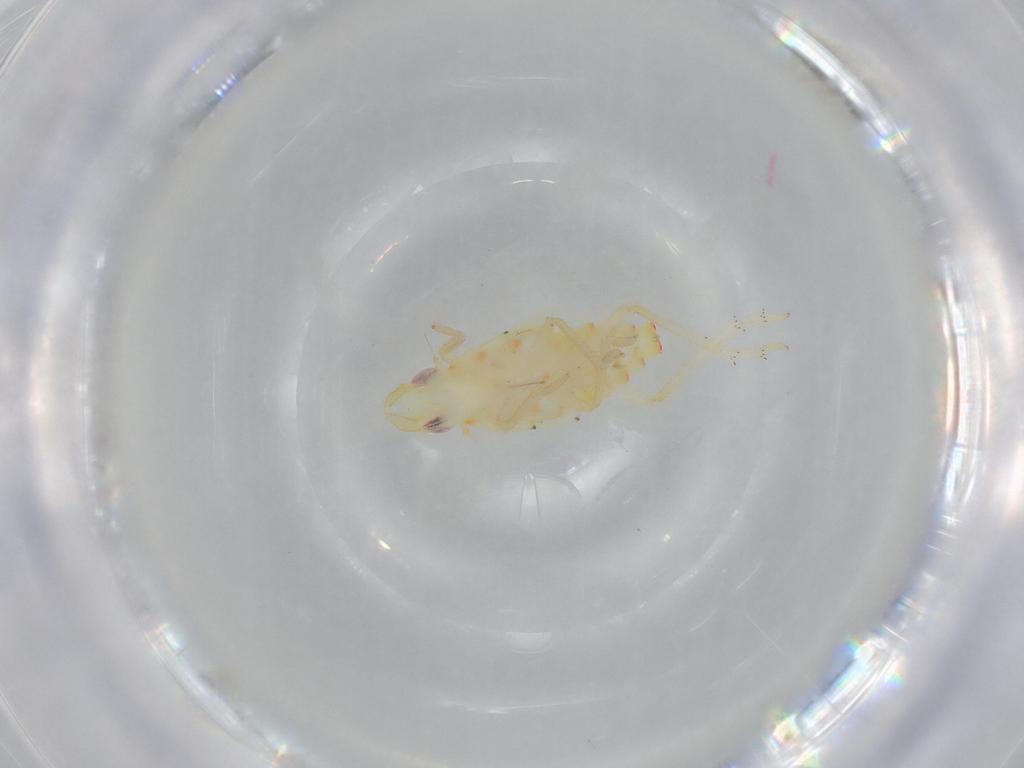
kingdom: Animalia
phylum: Arthropoda
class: Insecta
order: Hemiptera
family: Tropiduchidae
